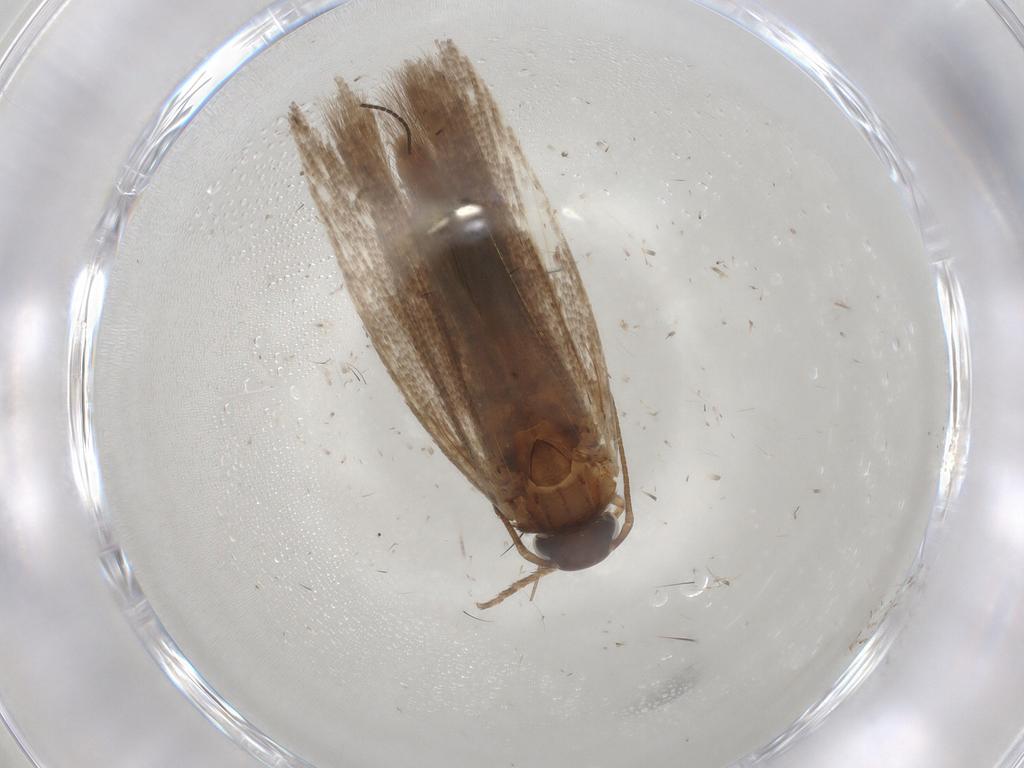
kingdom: Animalia
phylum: Arthropoda
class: Insecta
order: Lepidoptera
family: Gelechiidae
